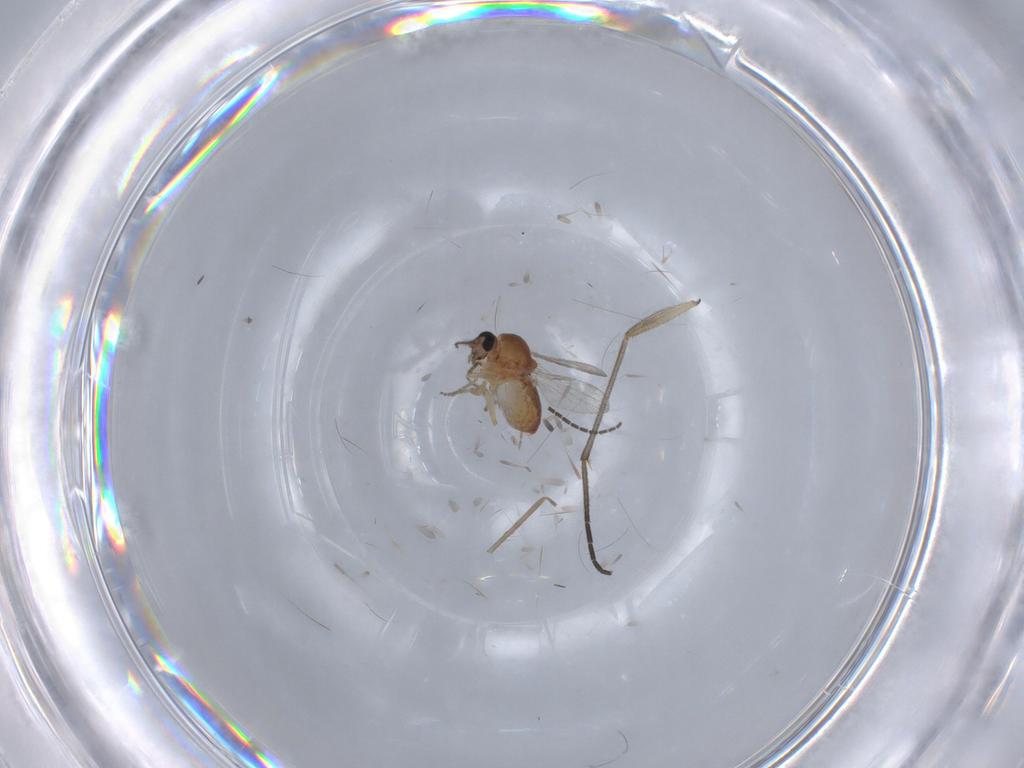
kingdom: Animalia
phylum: Arthropoda
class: Insecta
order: Diptera
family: Ceratopogonidae
